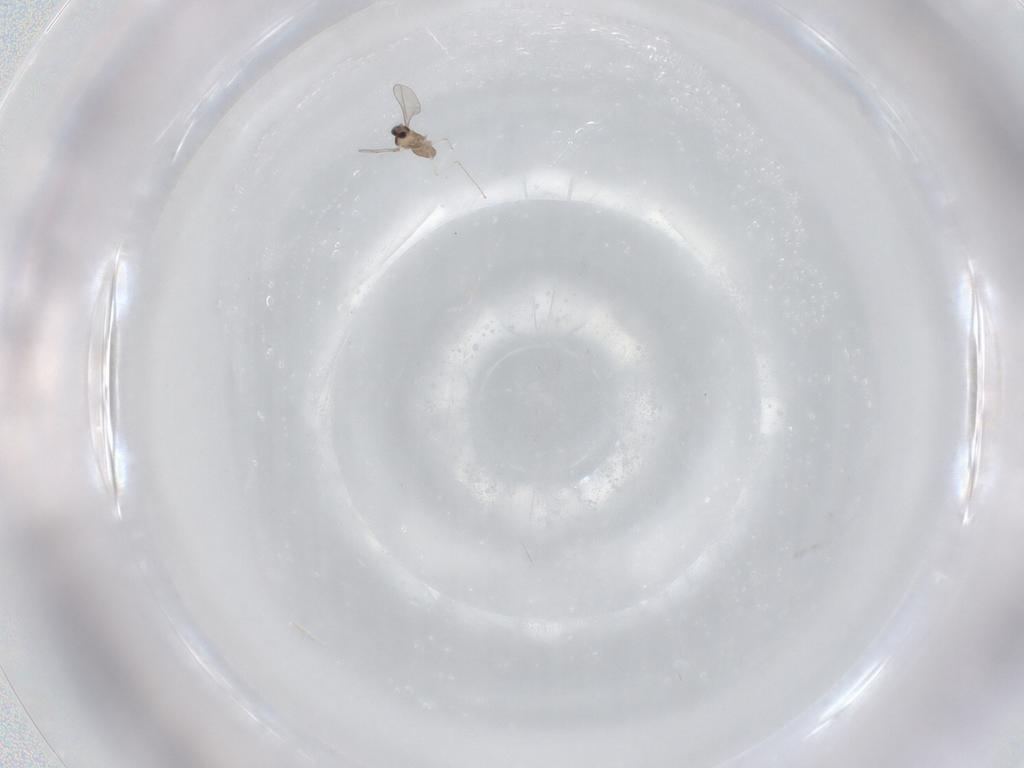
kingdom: Animalia
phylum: Arthropoda
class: Insecta
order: Diptera
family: Cecidomyiidae
